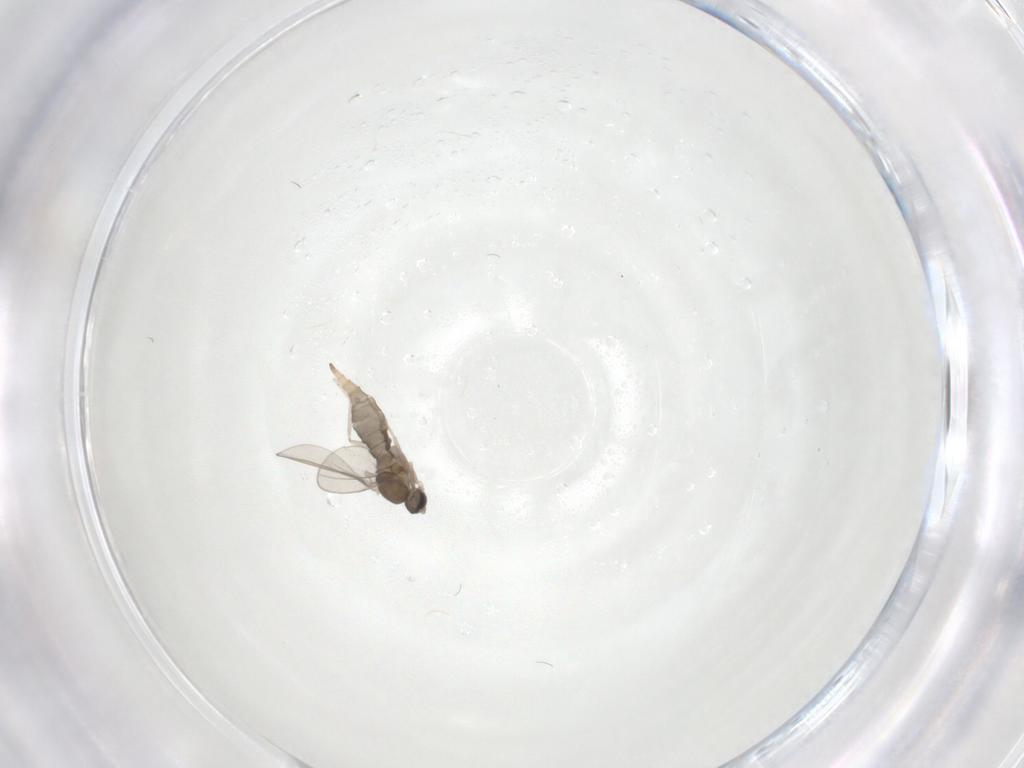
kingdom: Animalia
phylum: Arthropoda
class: Insecta
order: Diptera
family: Cecidomyiidae
